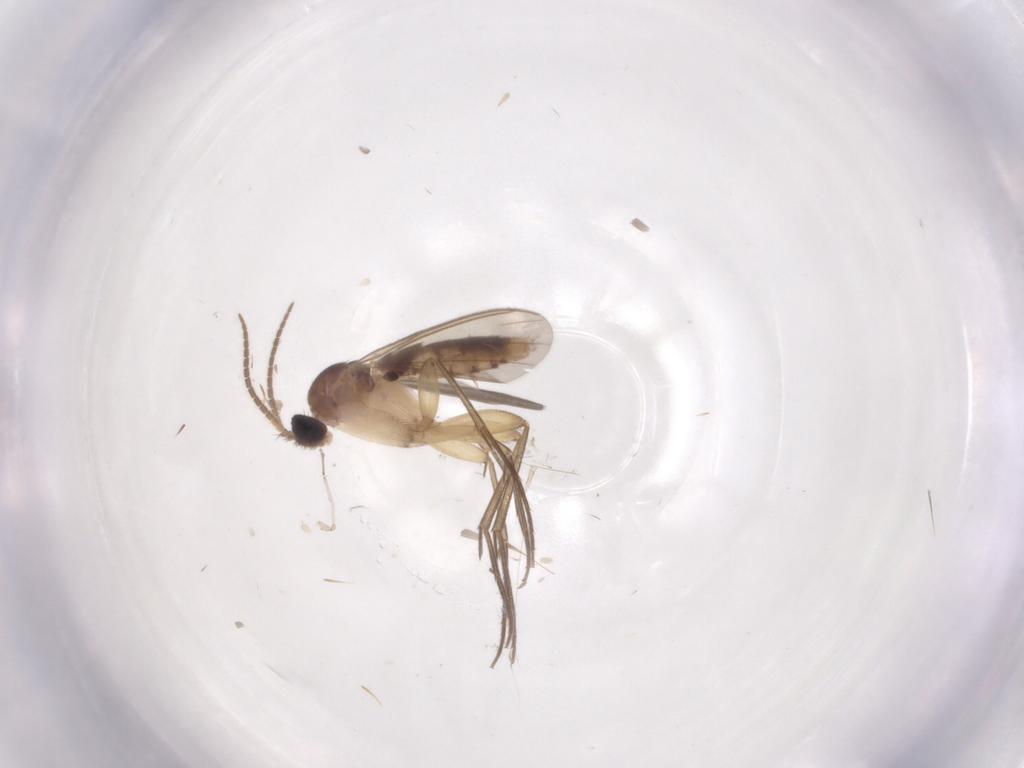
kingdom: Animalia
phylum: Arthropoda
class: Insecta
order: Diptera
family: Mycetophilidae
